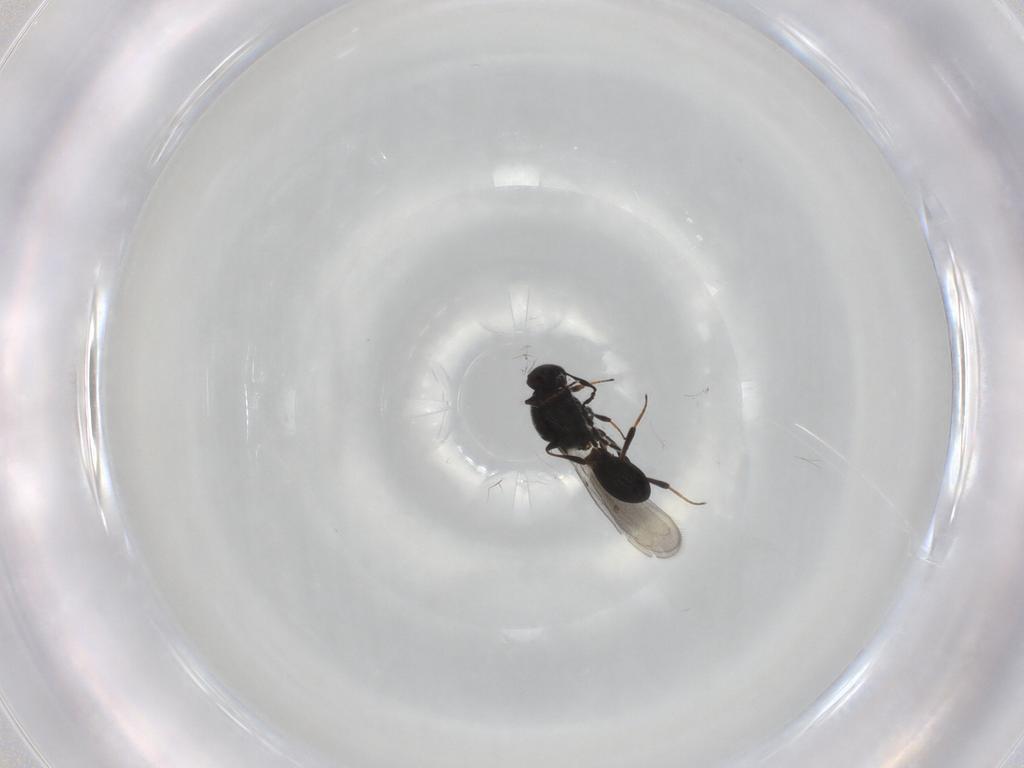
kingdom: Animalia
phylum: Arthropoda
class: Insecta
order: Hymenoptera
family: Platygastridae
